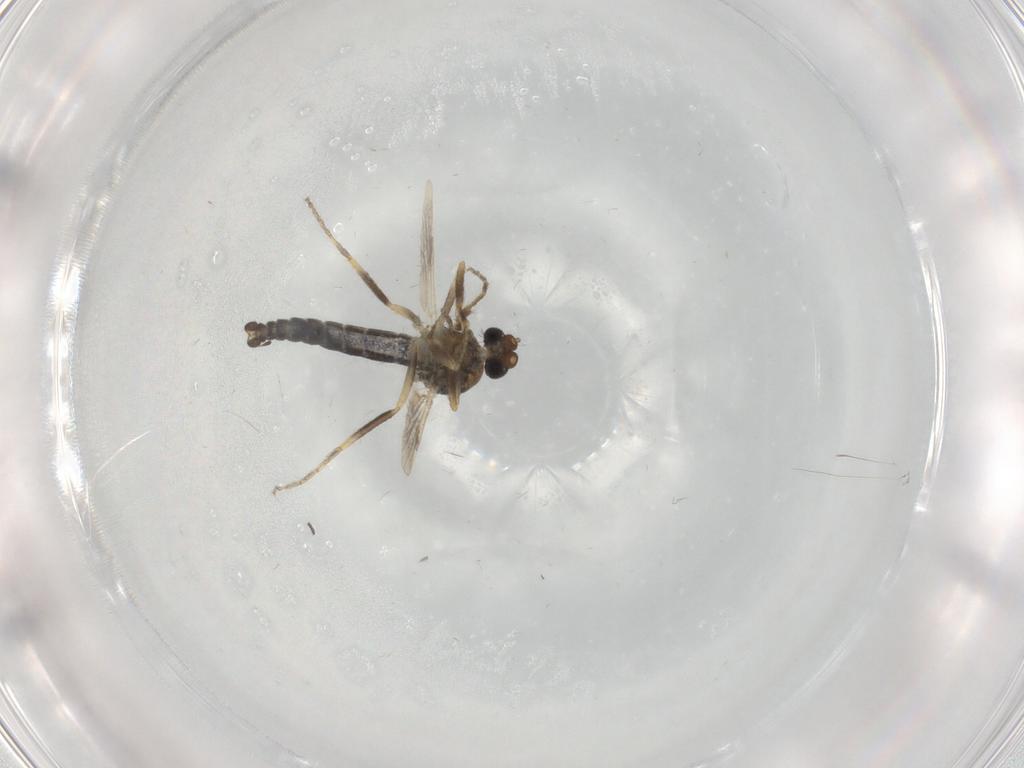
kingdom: Animalia
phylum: Arthropoda
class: Insecta
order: Diptera
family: Ceratopogonidae
